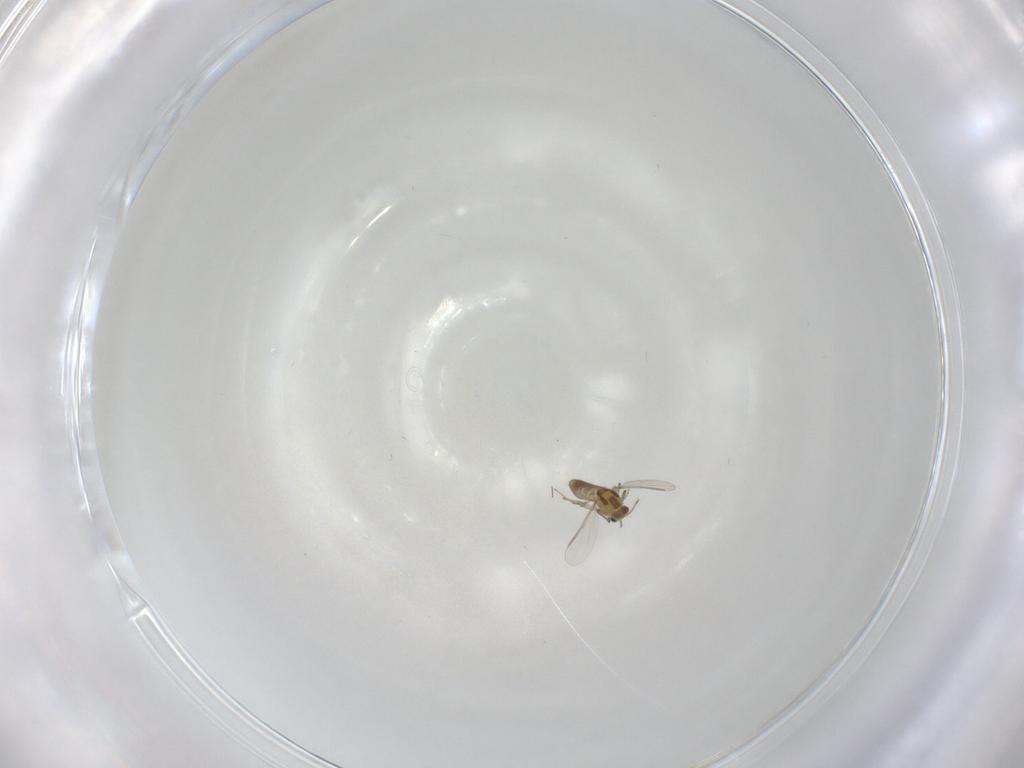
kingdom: Animalia
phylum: Arthropoda
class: Insecta
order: Diptera
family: Chironomidae
